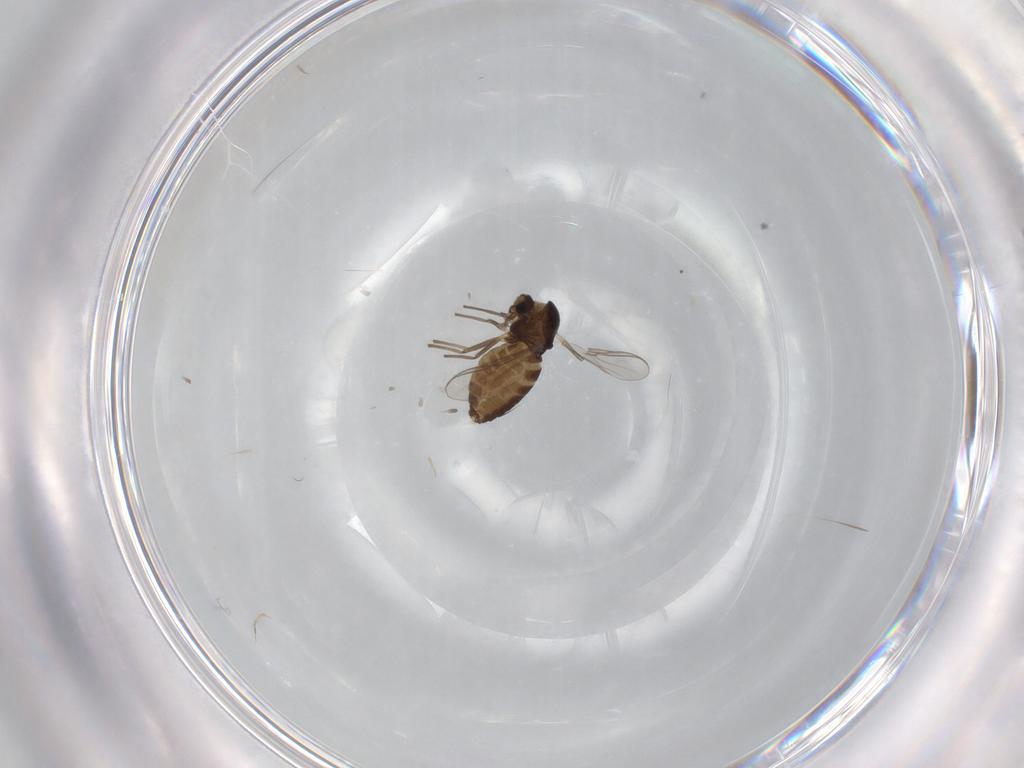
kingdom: Animalia
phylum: Arthropoda
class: Insecta
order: Diptera
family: Chironomidae
